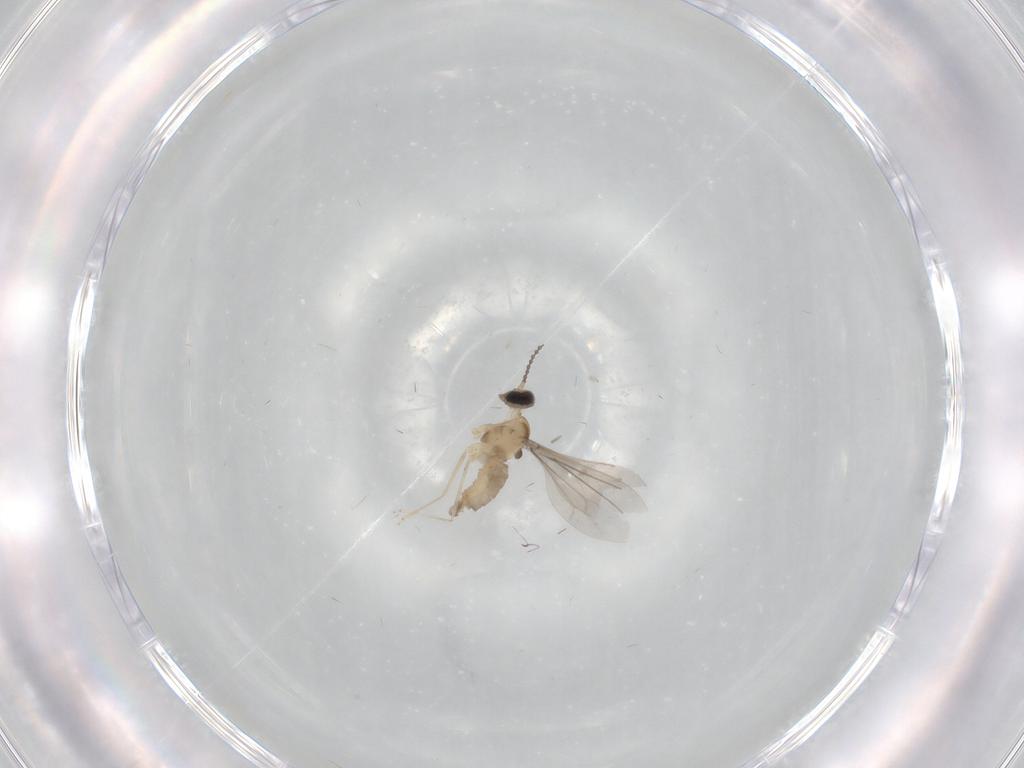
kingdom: Animalia
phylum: Arthropoda
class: Insecta
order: Diptera
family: Cecidomyiidae
